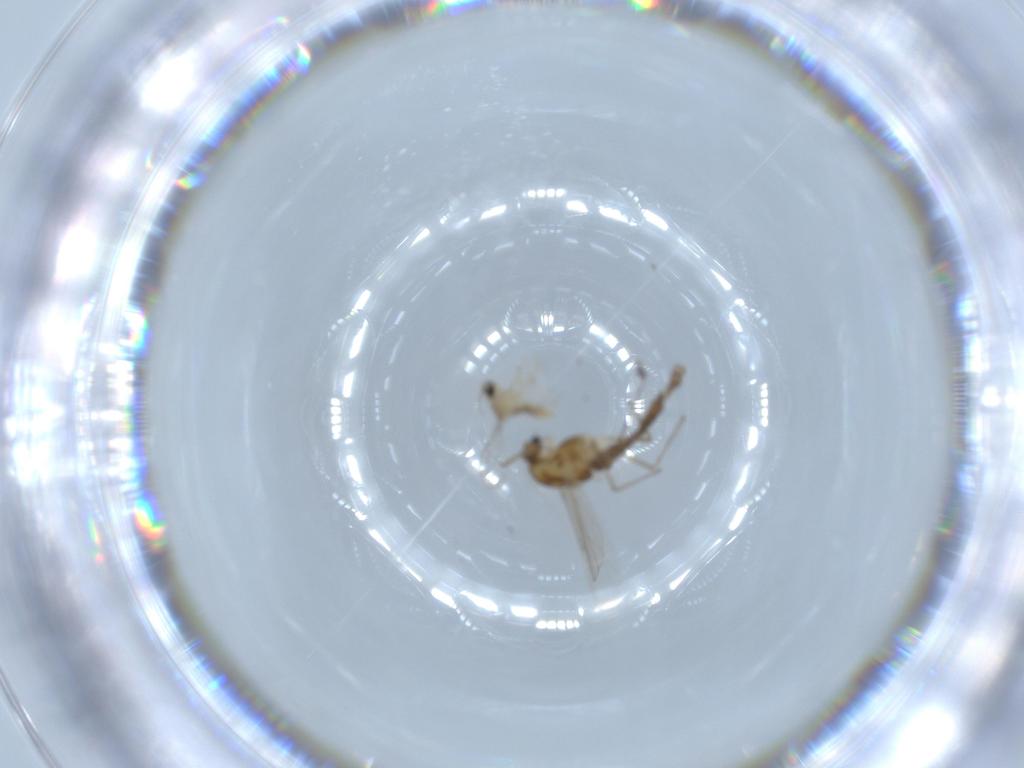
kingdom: Animalia
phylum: Arthropoda
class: Insecta
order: Diptera
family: Cecidomyiidae
